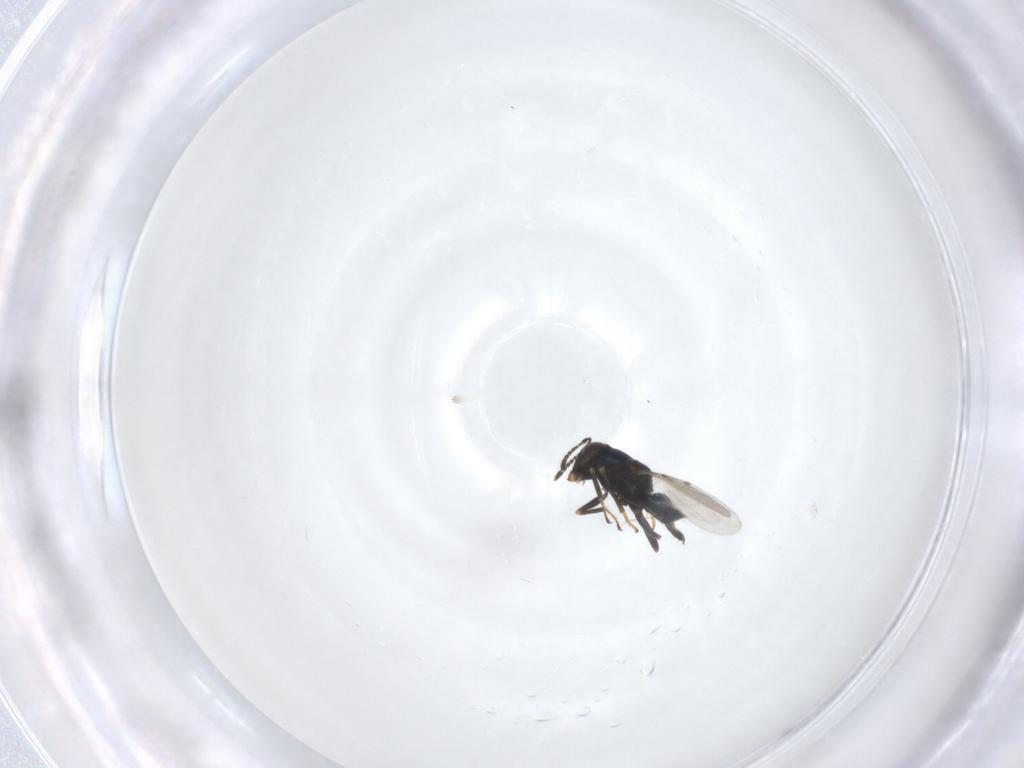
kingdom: Animalia
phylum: Arthropoda
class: Insecta
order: Hymenoptera
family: Encyrtidae
